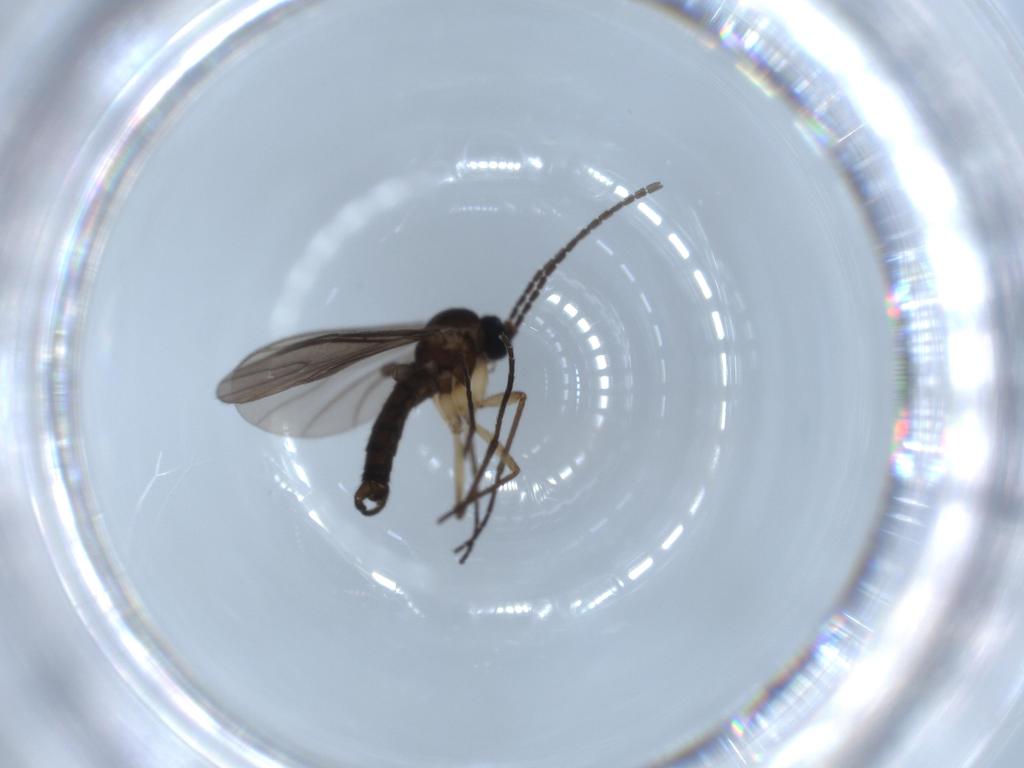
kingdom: Animalia
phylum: Arthropoda
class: Insecta
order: Diptera
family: Sciaridae
